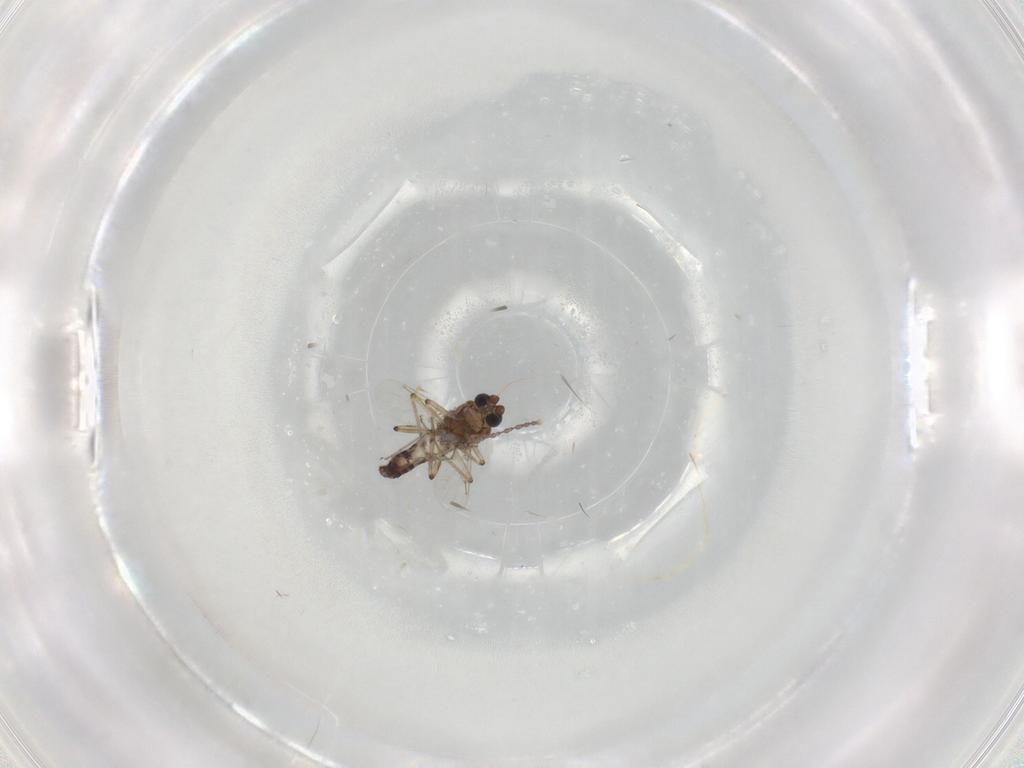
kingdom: Animalia
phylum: Arthropoda
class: Insecta
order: Diptera
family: Ceratopogonidae
